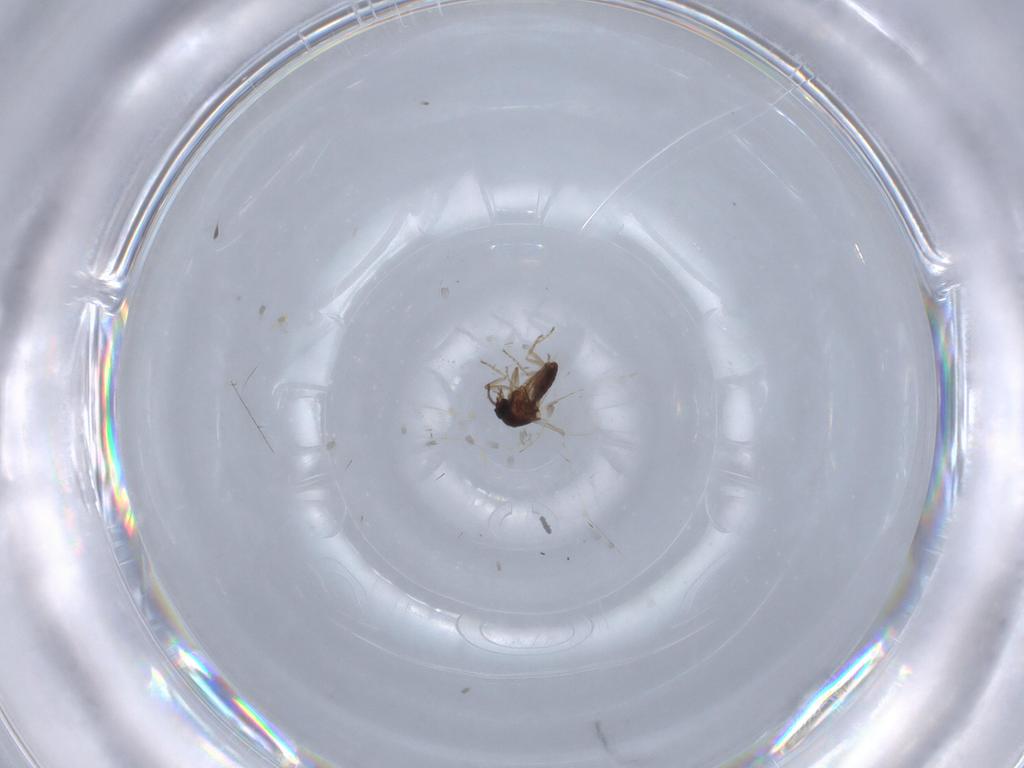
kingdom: Animalia
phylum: Arthropoda
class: Insecta
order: Diptera
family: Ceratopogonidae
